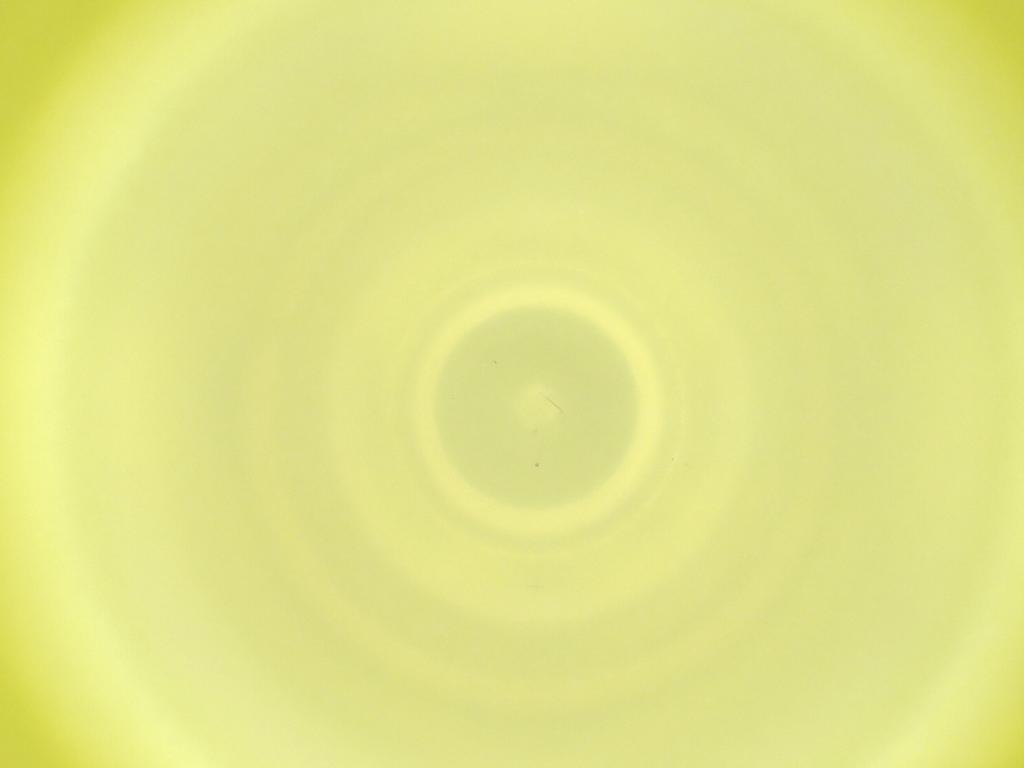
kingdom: Animalia
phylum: Arthropoda
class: Insecta
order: Diptera
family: Cecidomyiidae
